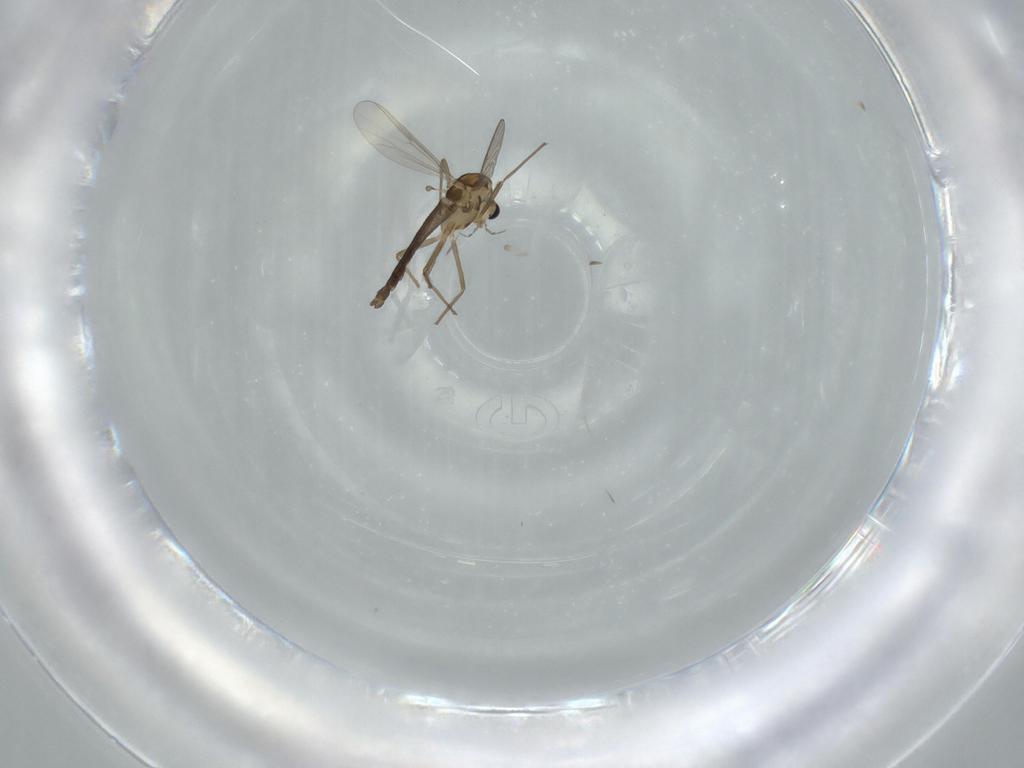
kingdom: Animalia
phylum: Arthropoda
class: Insecta
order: Diptera
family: Chironomidae
